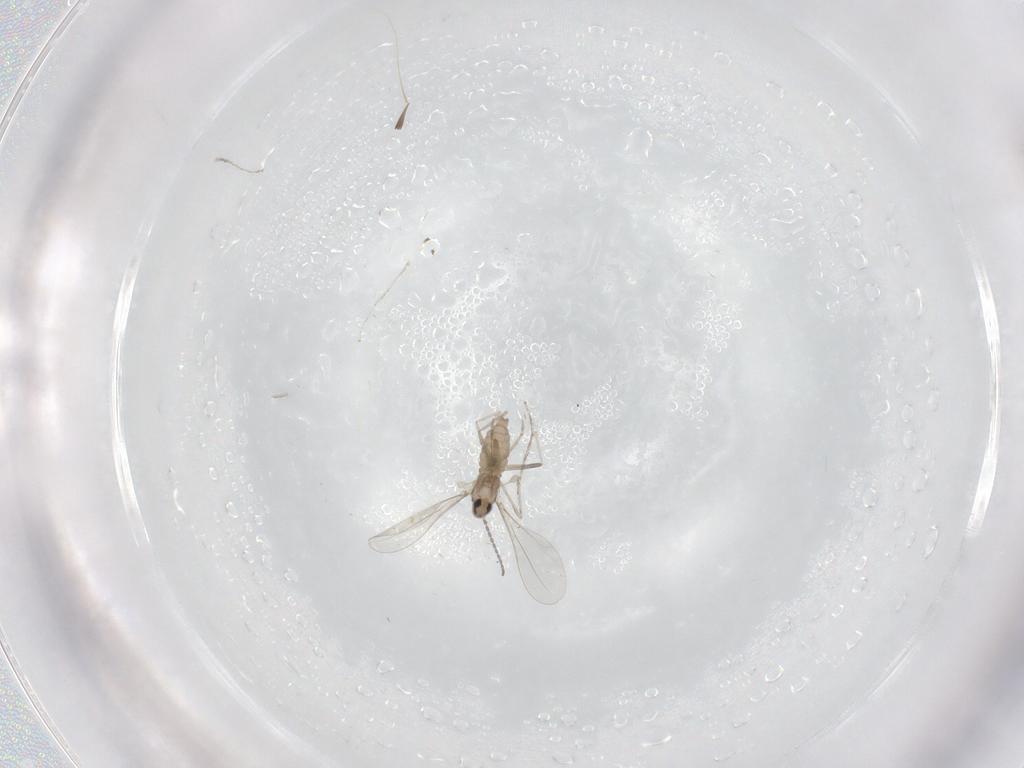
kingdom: Animalia
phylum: Arthropoda
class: Insecta
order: Diptera
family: Cecidomyiidae
